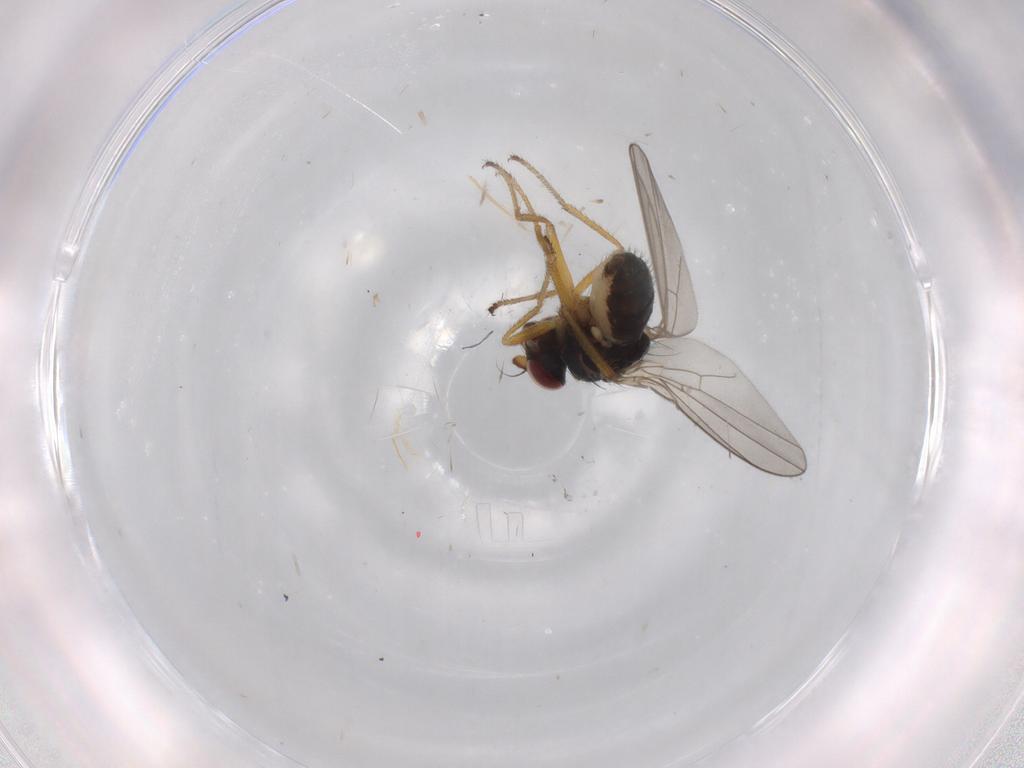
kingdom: Animalia
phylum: Arthropoda
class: Insecta
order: Diptera
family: Ephydridae
